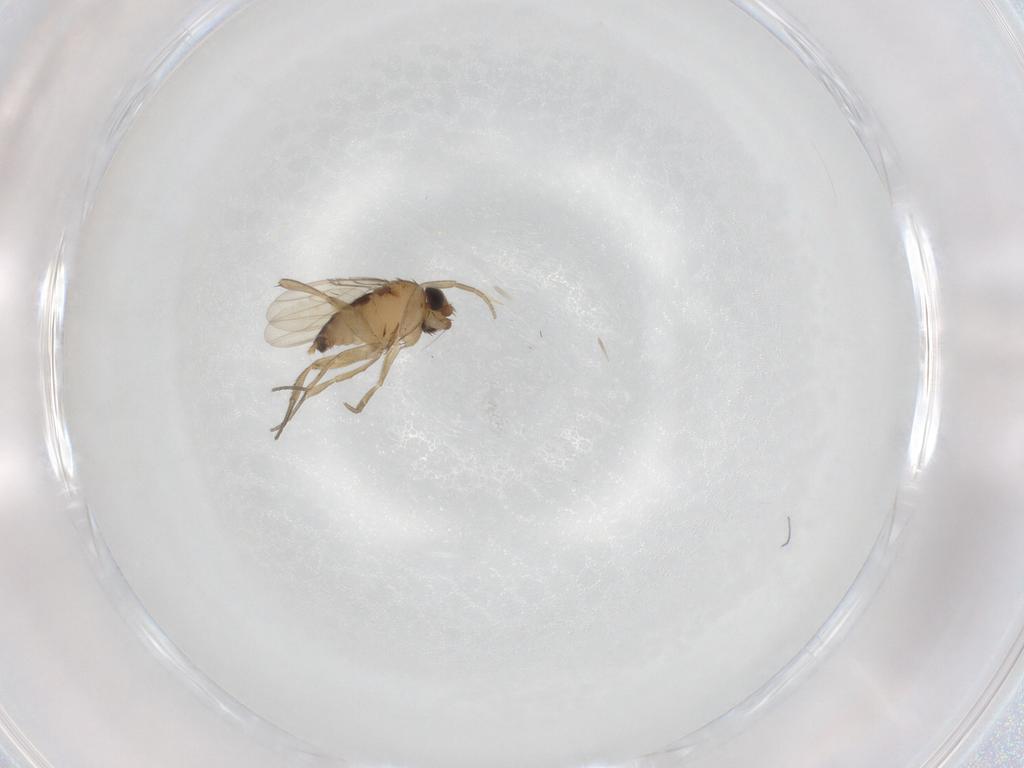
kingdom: Animalia
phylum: Arthropoda
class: Insecta
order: Diptera
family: Phoridae
